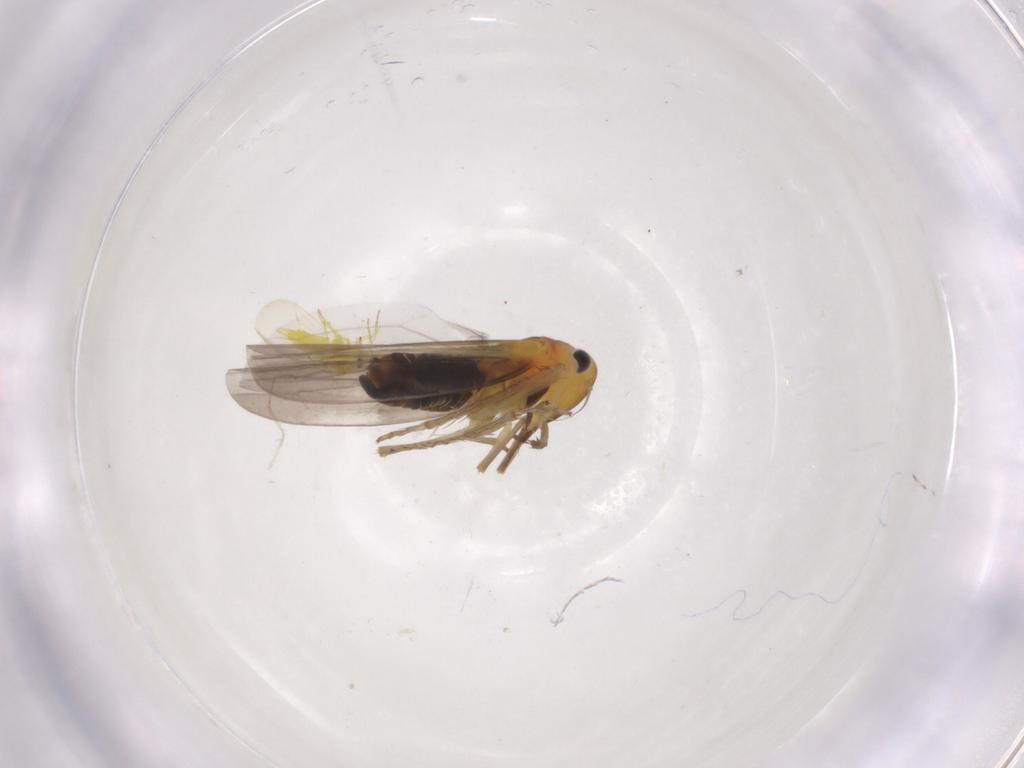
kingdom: Animalia
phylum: Arthropoda
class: Insecta
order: Hemiptera
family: Cicadellidae
